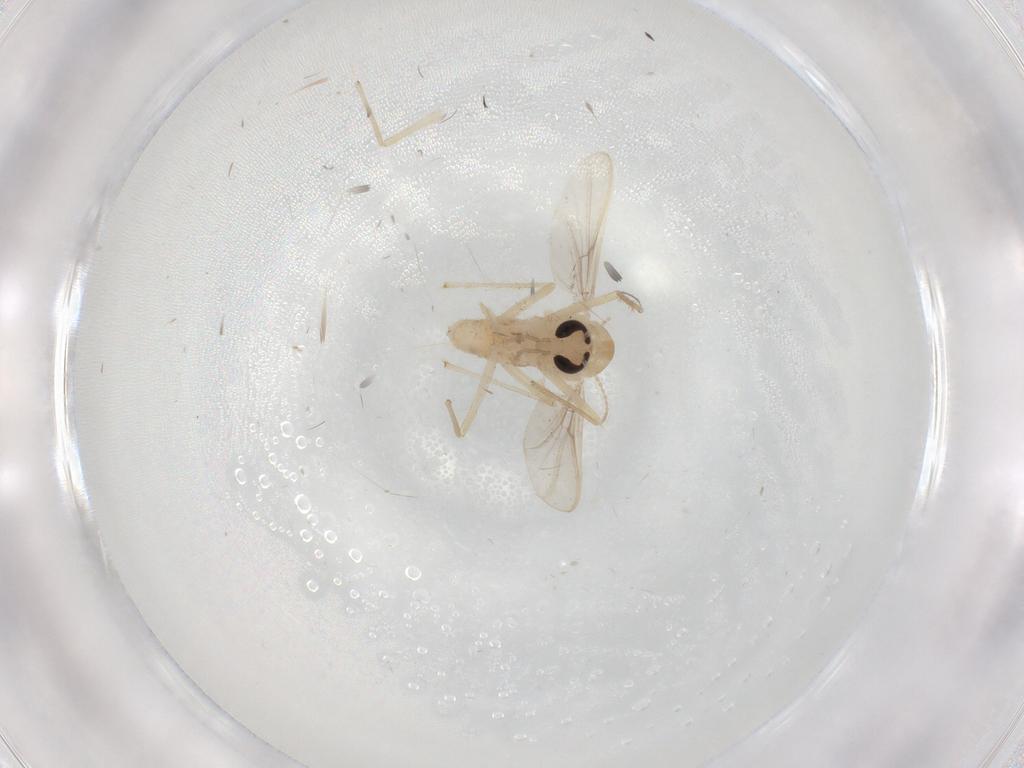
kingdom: Animalia
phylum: Arthropoda
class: Insecta
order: Diptera
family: Chironomidae
